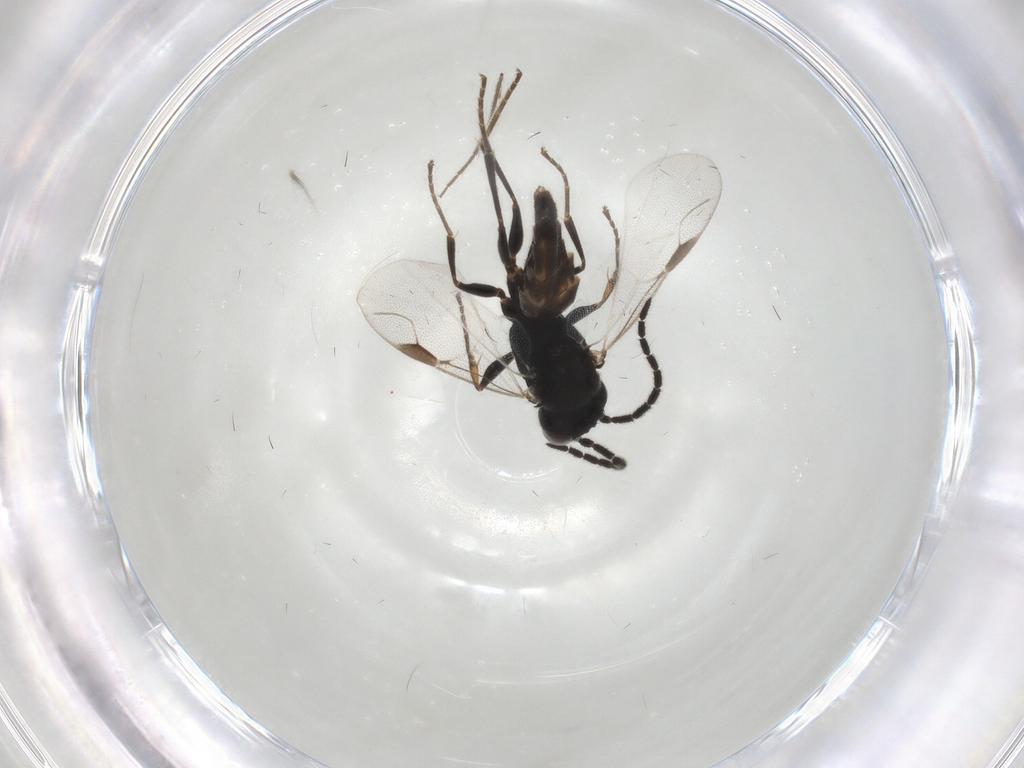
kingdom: Animalia
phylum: Arthropoda
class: Insecta
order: Hymenoptera
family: Dryinidae
